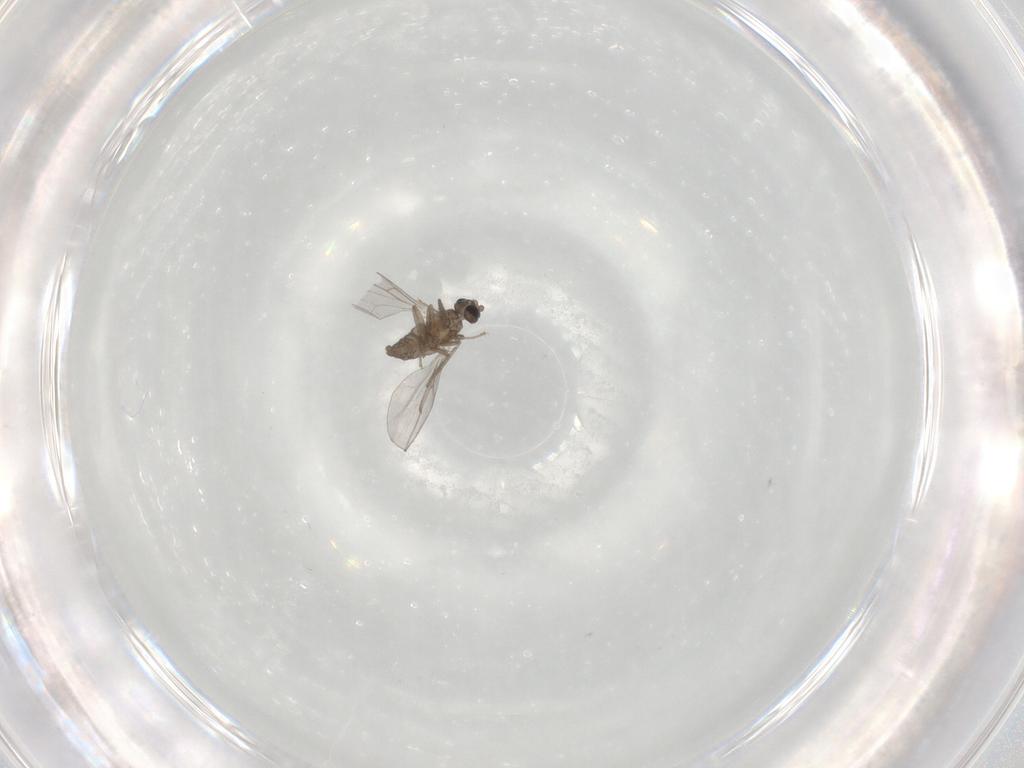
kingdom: Animalia
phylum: Arthropoda
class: Insecta
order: Diptera
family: Cecidomyiidae
